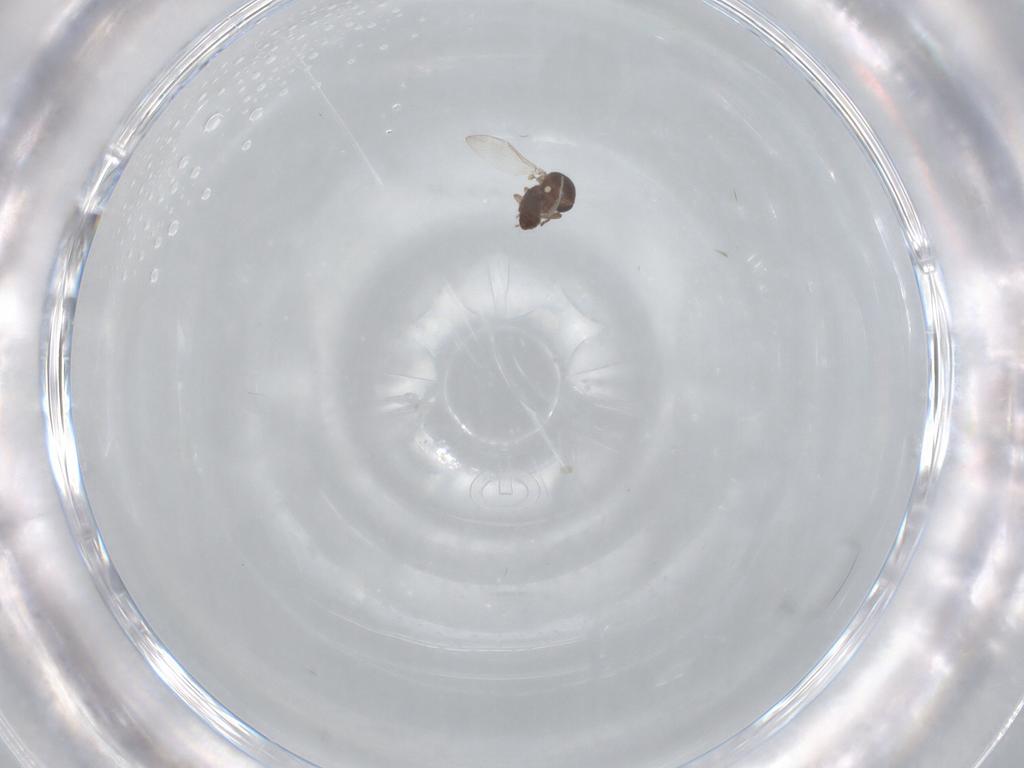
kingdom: Animalia
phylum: Arthropoda
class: Insecta
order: Diptera
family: Ceratopogonidae
